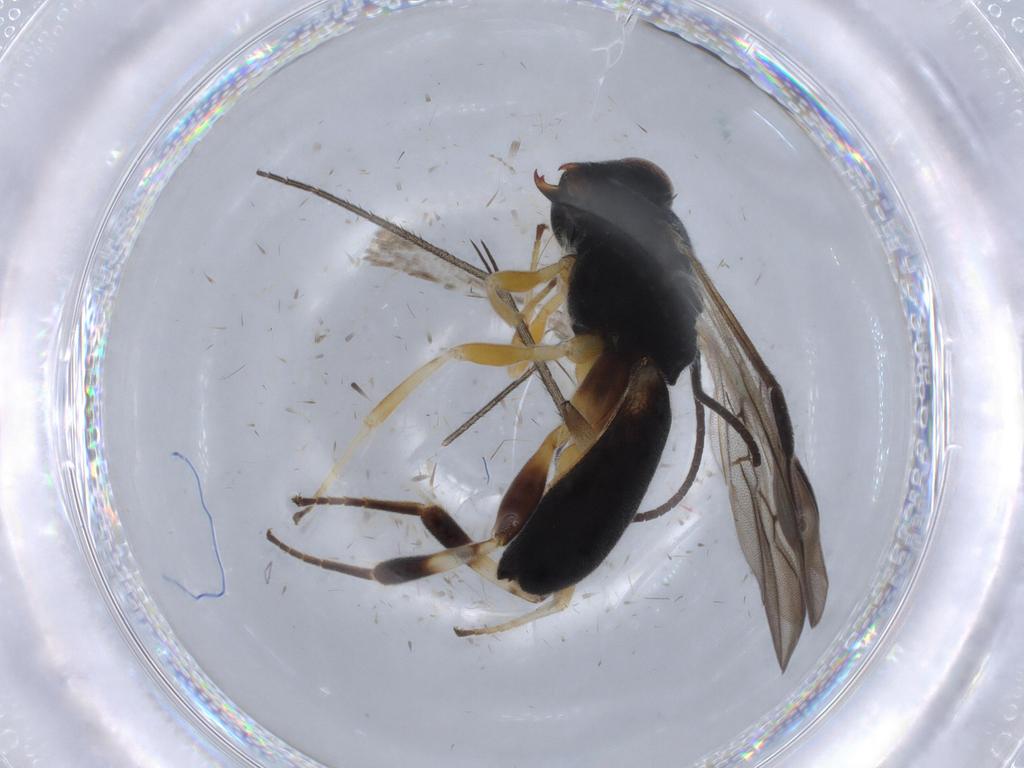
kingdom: Animalia
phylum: Arthropoda
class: Insecta
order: Hymenoptera
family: Braconidae
